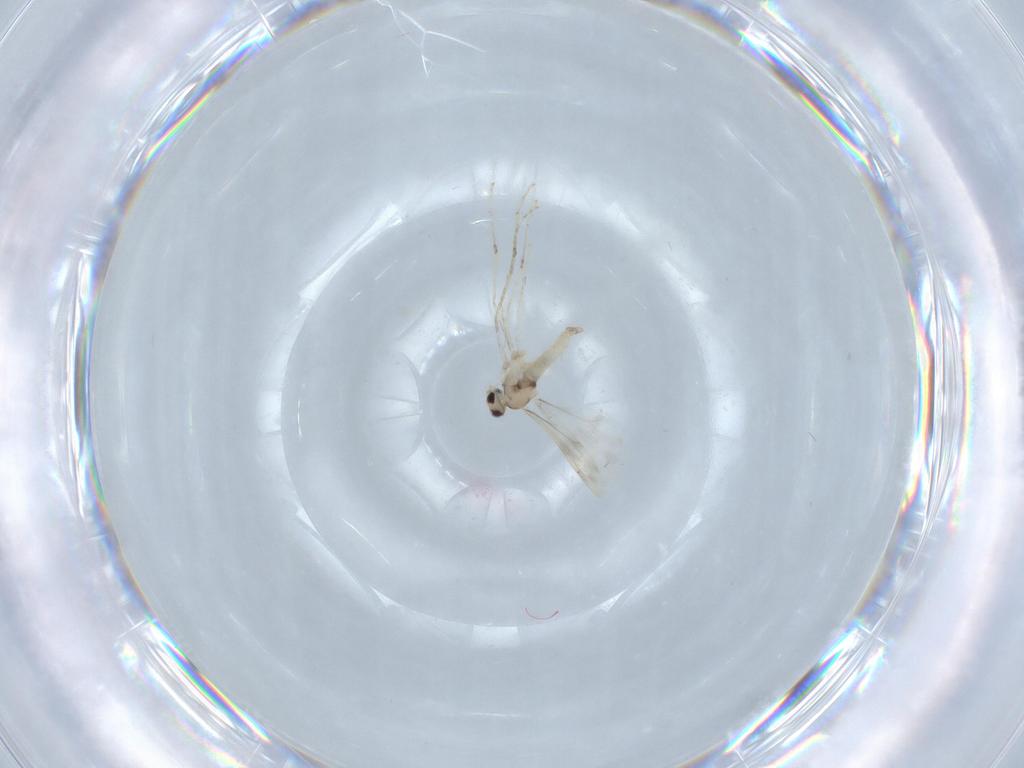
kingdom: Animalia
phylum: Arthropoda
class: Insecta
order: Diptera
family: Cecidomyiidae
